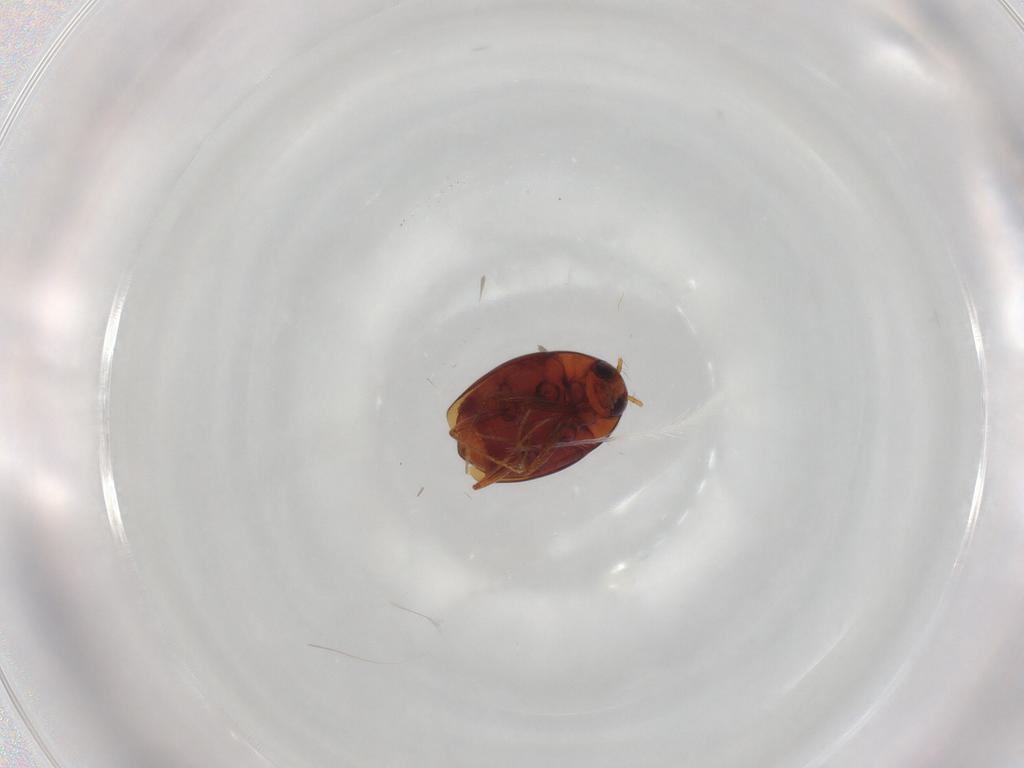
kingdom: Animalia
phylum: Arthropoda
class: Insecta
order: Coleoptera
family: Staphylinidae
